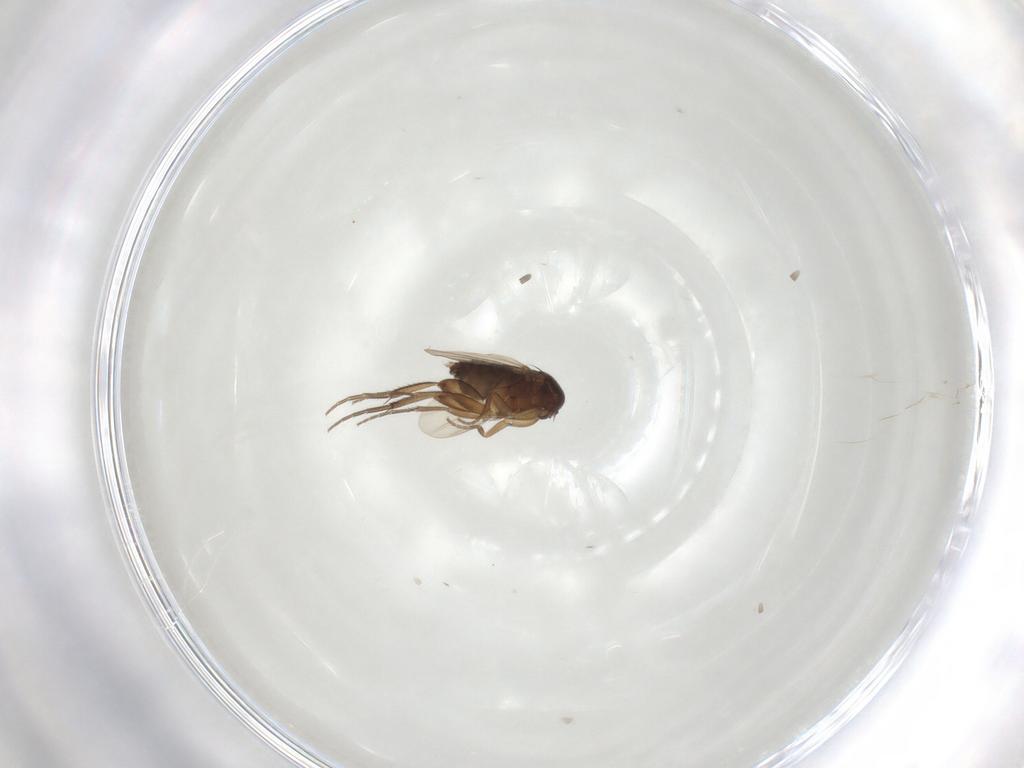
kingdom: Animalia
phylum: Arthropoda
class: Insecta
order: Diptera
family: Phoridae
